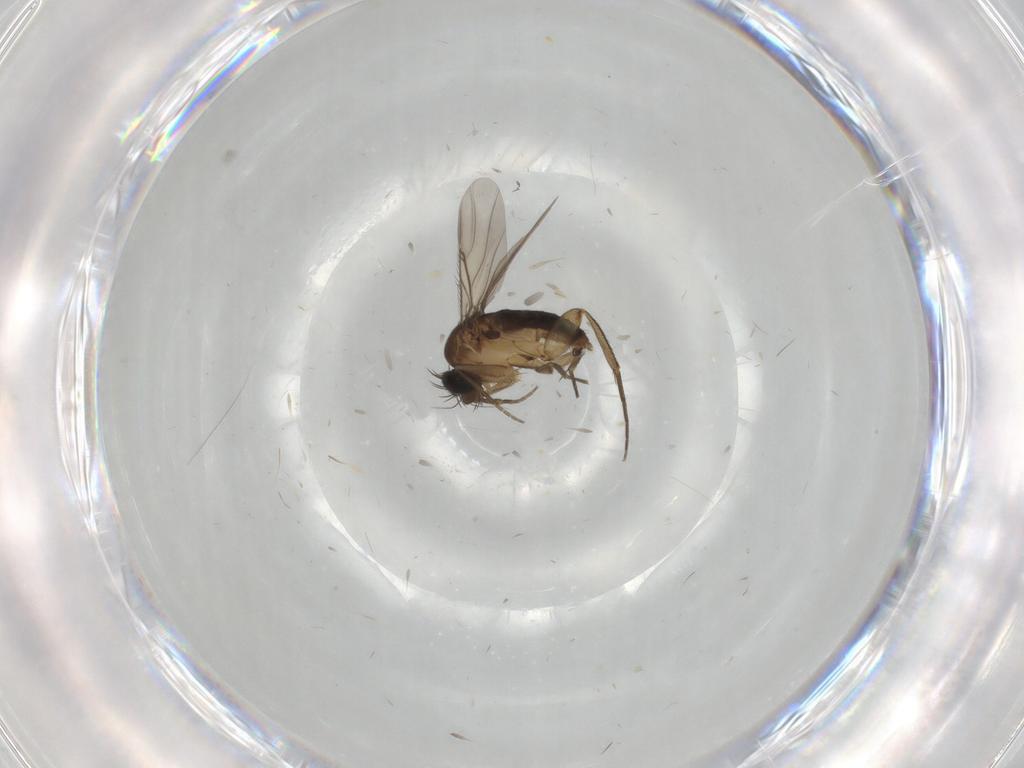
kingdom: Animalia
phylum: Arthropoda
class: Insecta
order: Diptera
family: Phoridae
